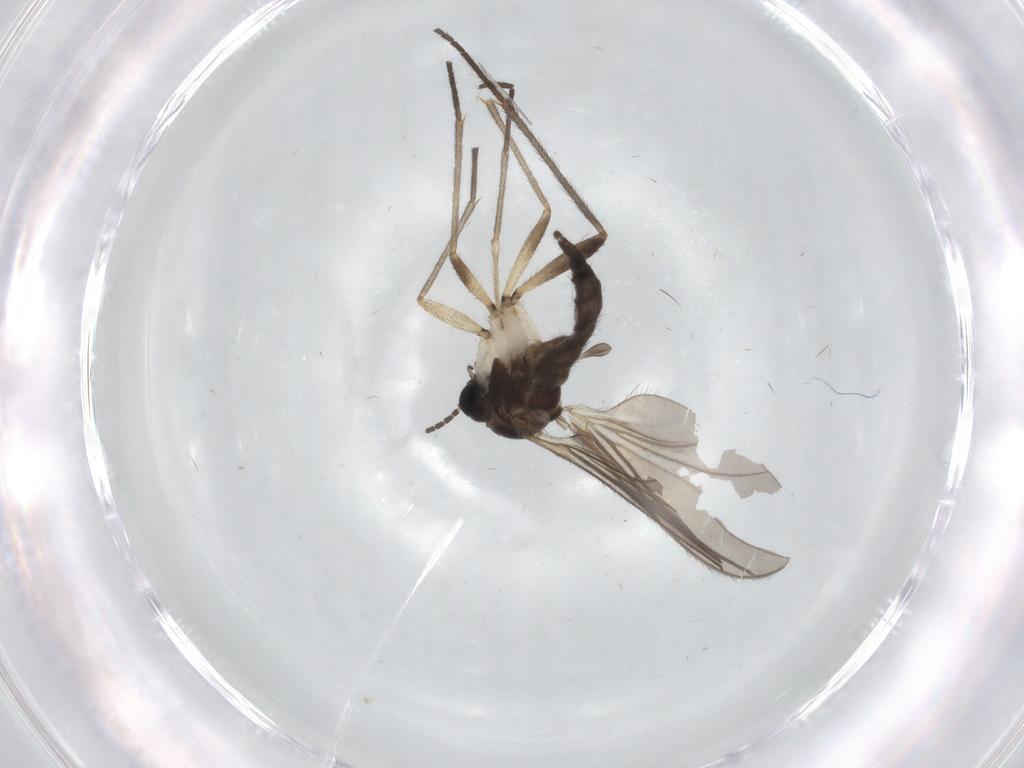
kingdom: Animalia
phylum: Arthropoda
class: Insecta
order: Diptera
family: Sciaridae
